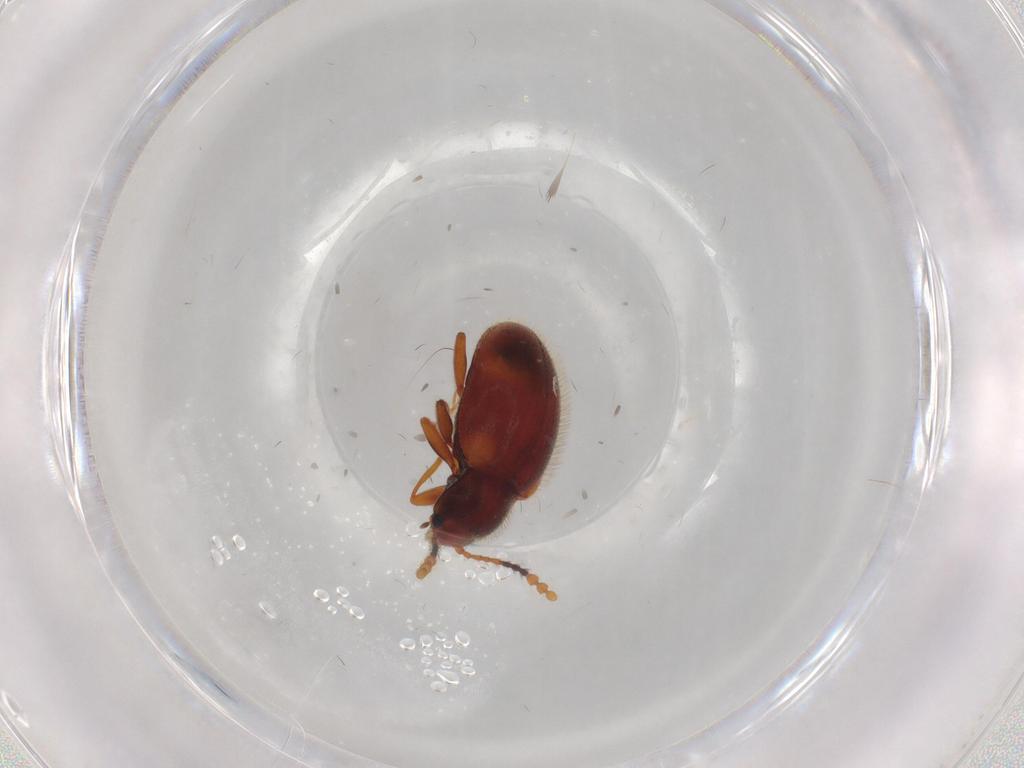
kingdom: Animalia
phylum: Arthropoda
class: Insecta
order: Coleoptera
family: Erotylidae
